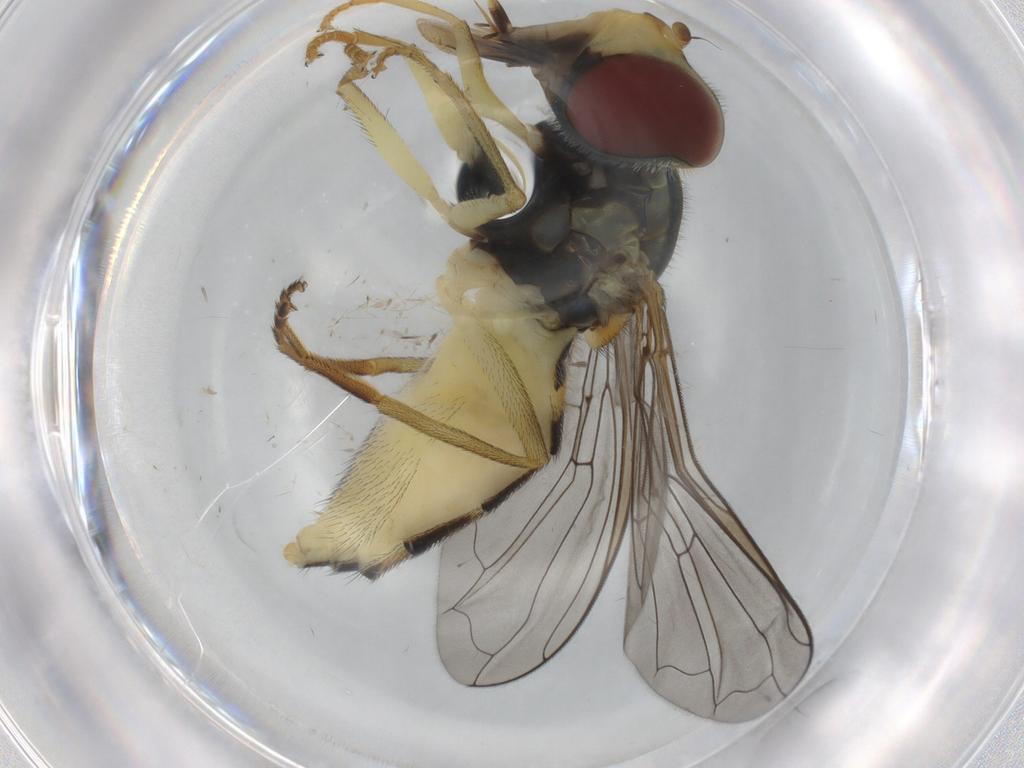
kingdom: Animalia
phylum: Arthropoda
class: Insecta
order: Diptera
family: Syrphidae
